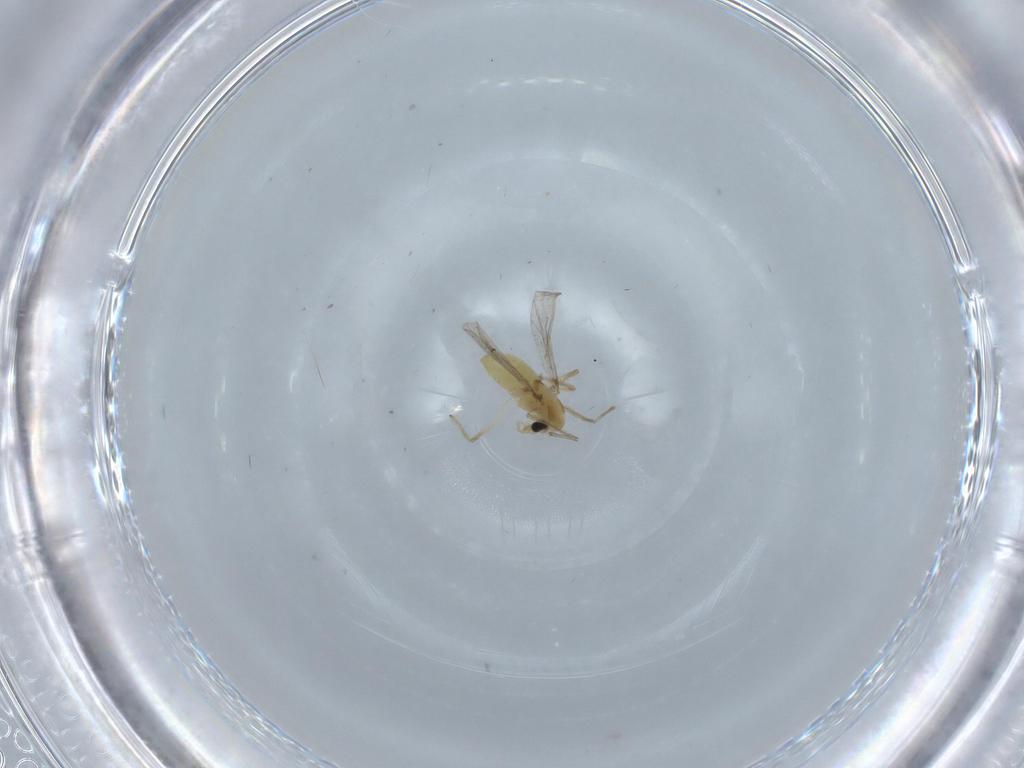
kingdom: Animalia
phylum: Arthropoda
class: Insecta
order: Diptera
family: Chironomidae
